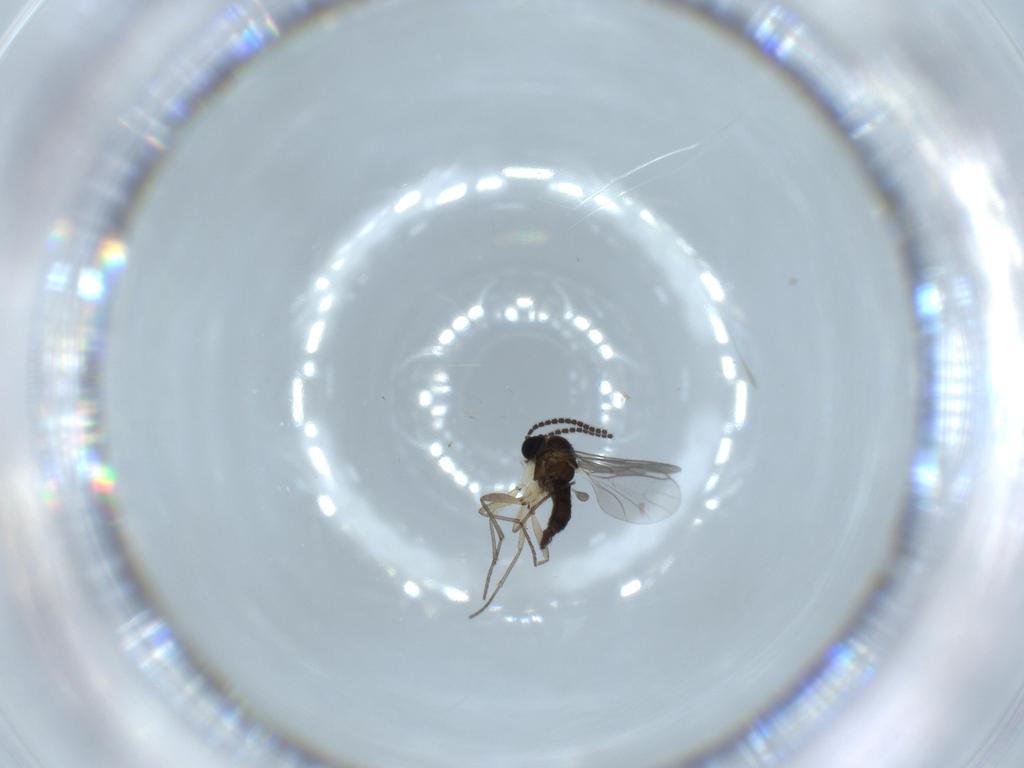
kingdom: Animalia
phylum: Arthropoda
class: Insecta
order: Diptera
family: Sciaridae
